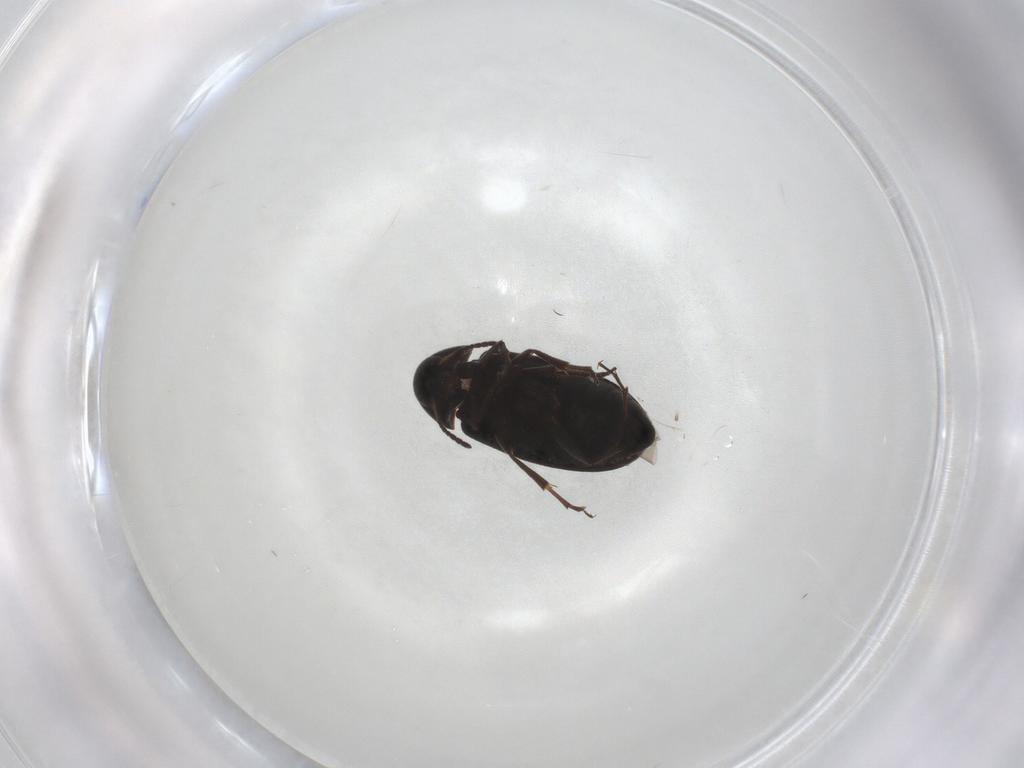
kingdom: Animalia
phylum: Arthropoda
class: Insecta
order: Coleoptera
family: Scraptiidae
